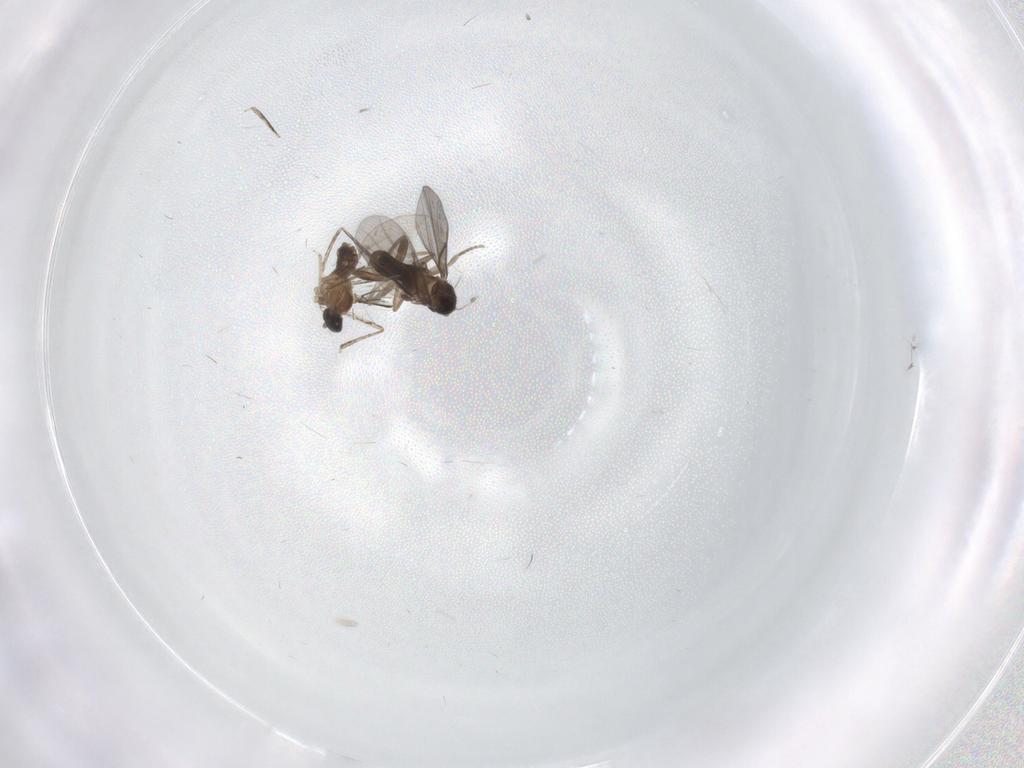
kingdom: Animalia
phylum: Arthropoda
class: Insecta
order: Diptera
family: Cecidomyiidae
